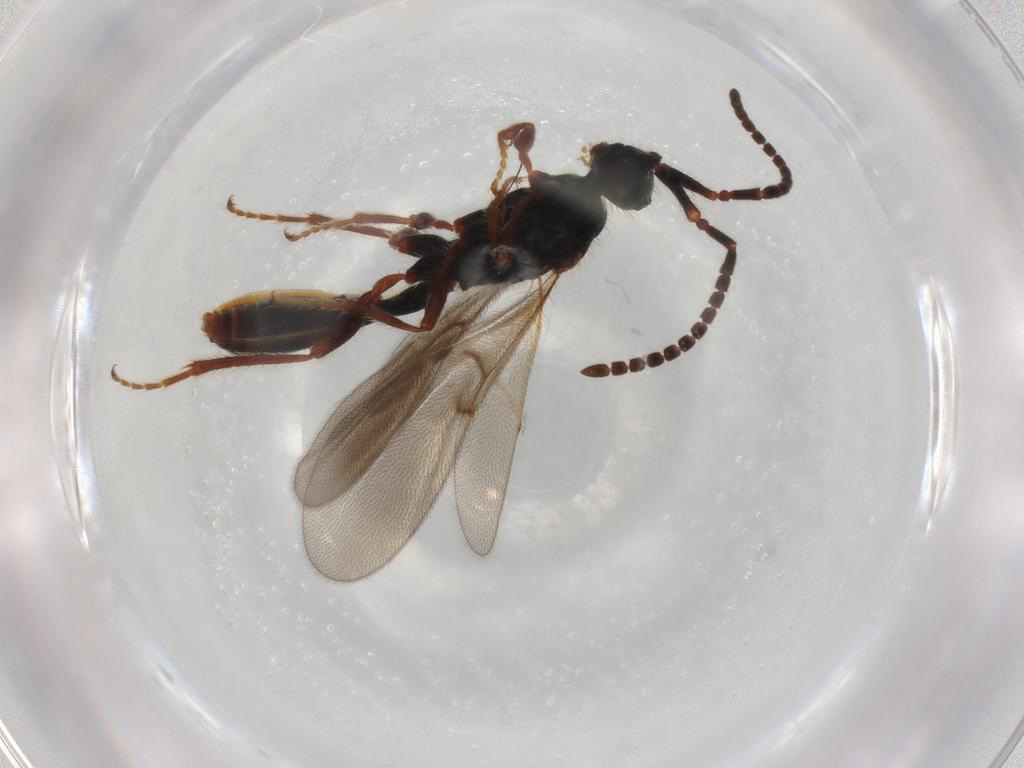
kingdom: Animalia
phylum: Arthropoda
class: Insecta
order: Hymenoptera
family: Diapriidae
